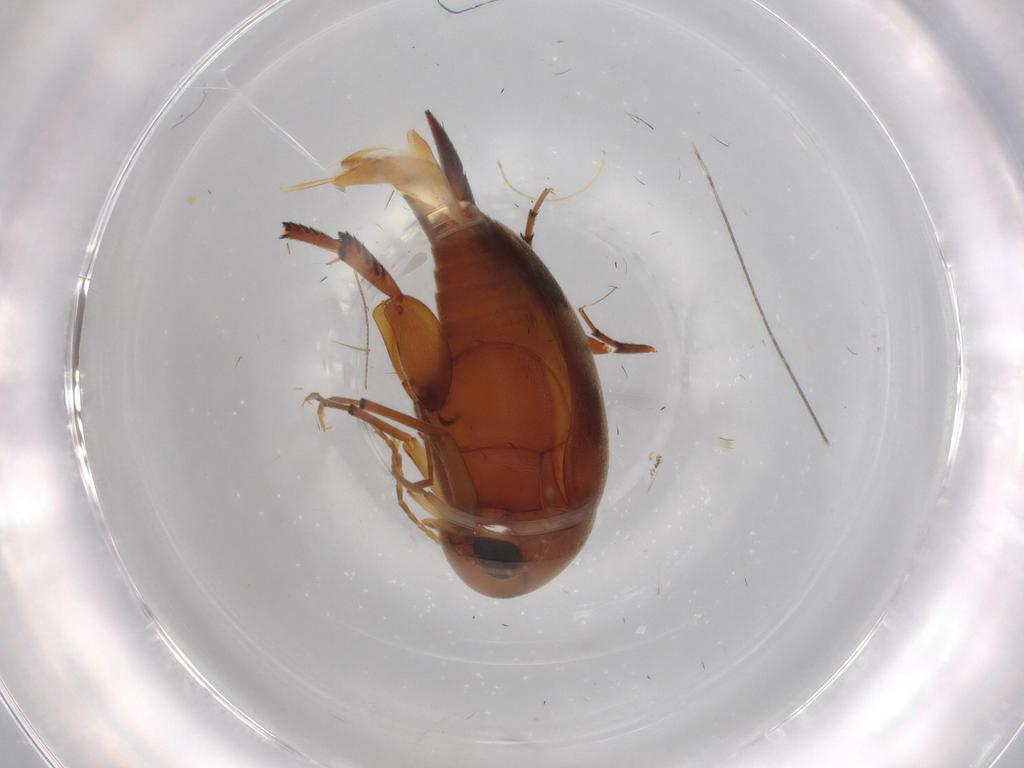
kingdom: Animalia
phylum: Arthropoda
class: Insecta
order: Coleoptera
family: Mordellidae
